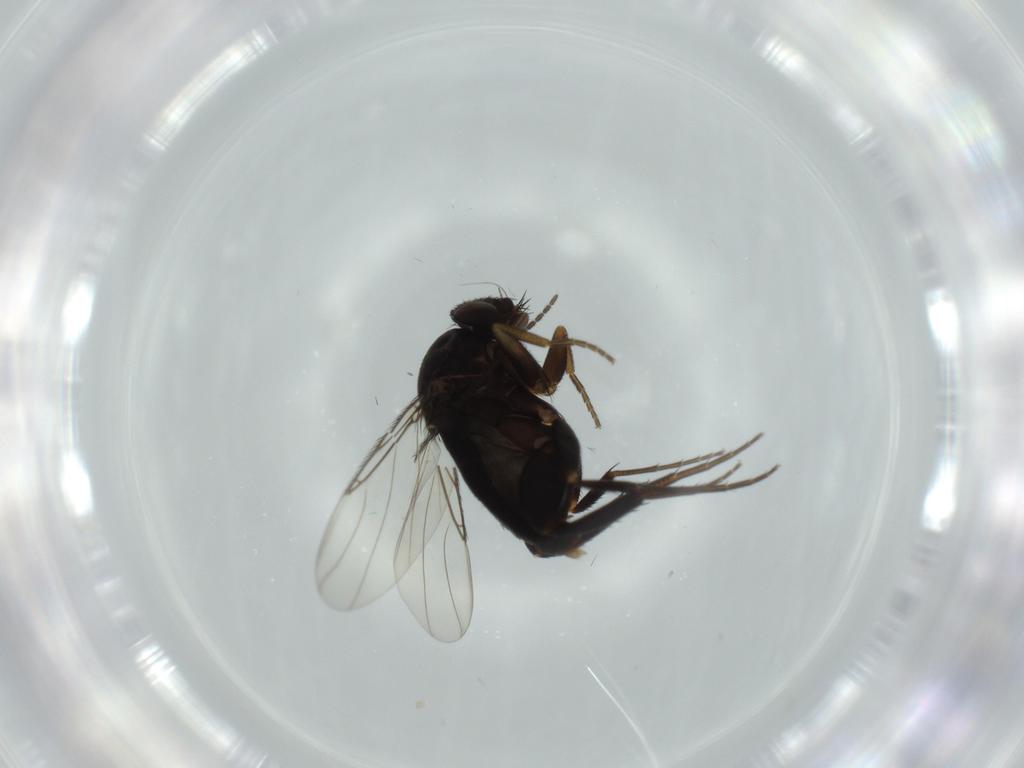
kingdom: Animalia
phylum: Arthropoda
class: Insecta
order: Diptera
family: Phoridae
